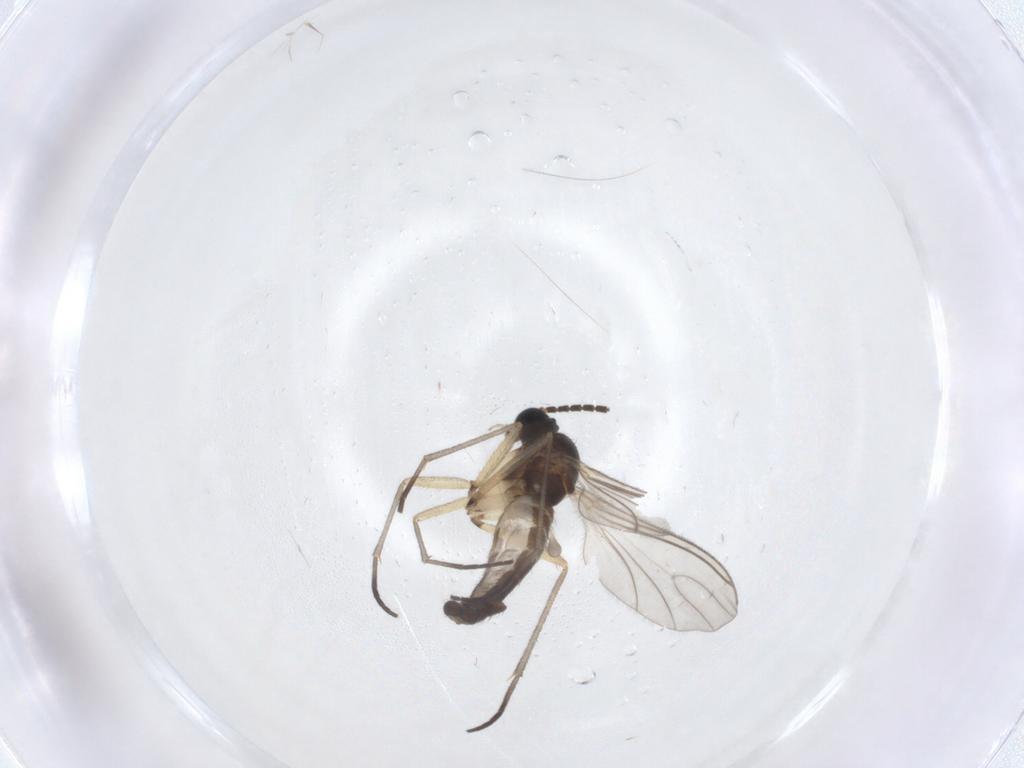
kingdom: Animalia
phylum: Arthropoda
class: Insecta
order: Diptera
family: Sciaridae
